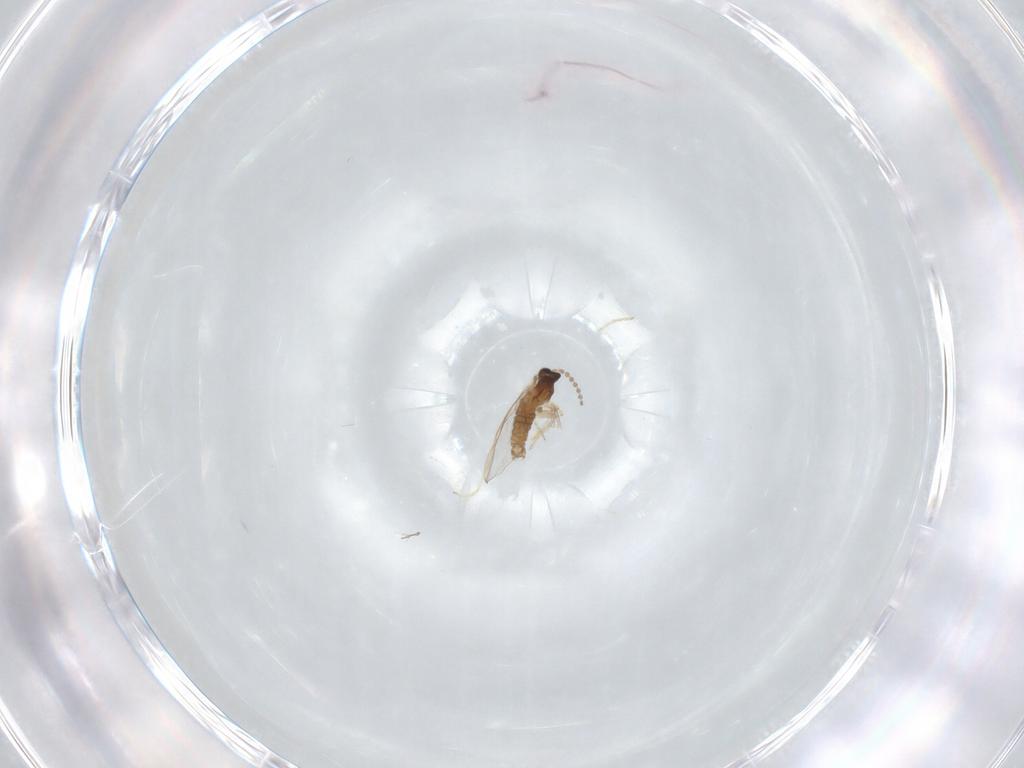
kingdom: Animalia
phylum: Arthropoda
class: Insecta
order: Diptera
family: Cecidomyiidae
